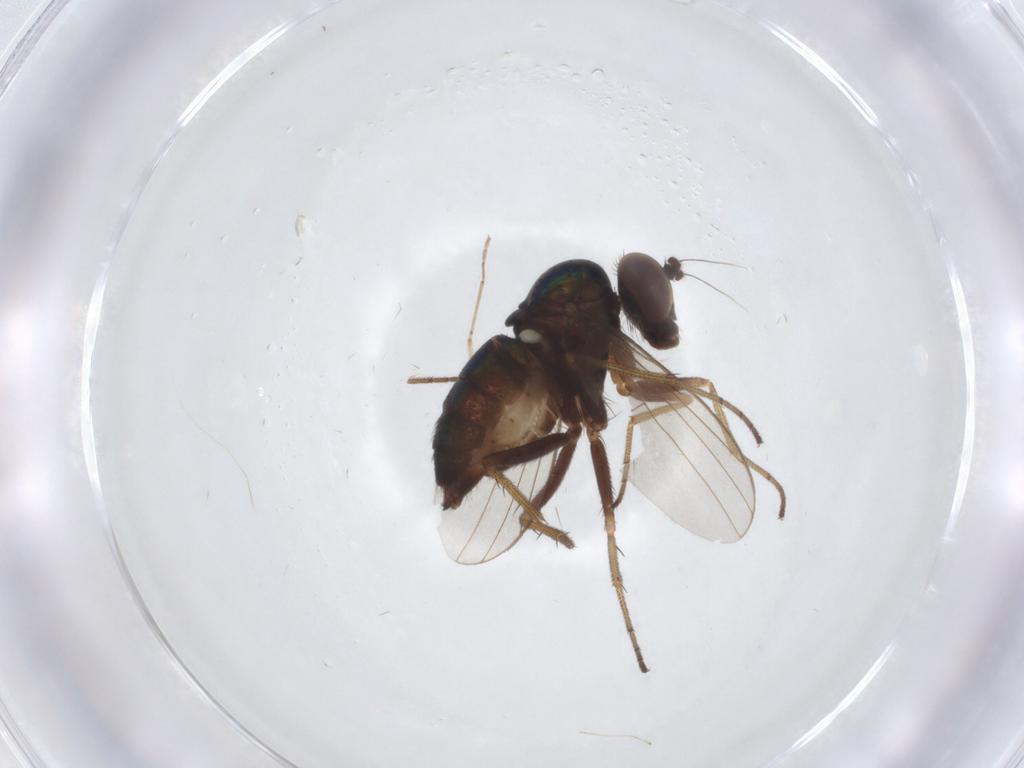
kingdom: Animalia
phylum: Arthropoda
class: Insecta
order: Diptera
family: Dolichopodidae
